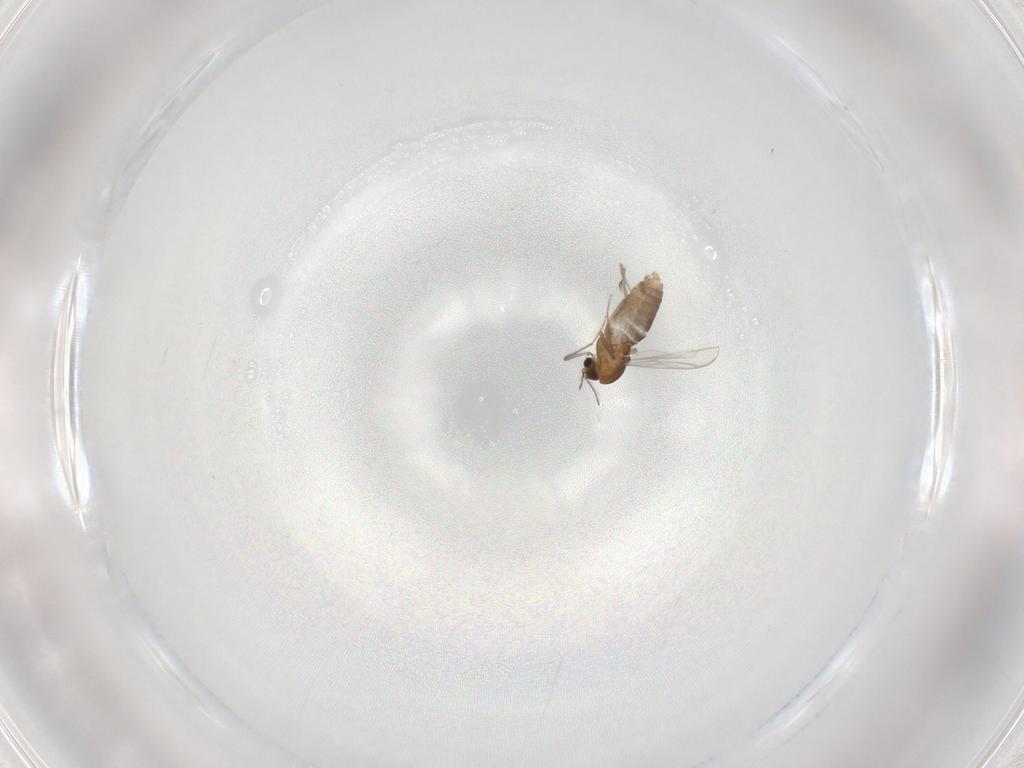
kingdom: Animalia
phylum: Arthropoda
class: Insecta
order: Diptera
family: Chironomidae
